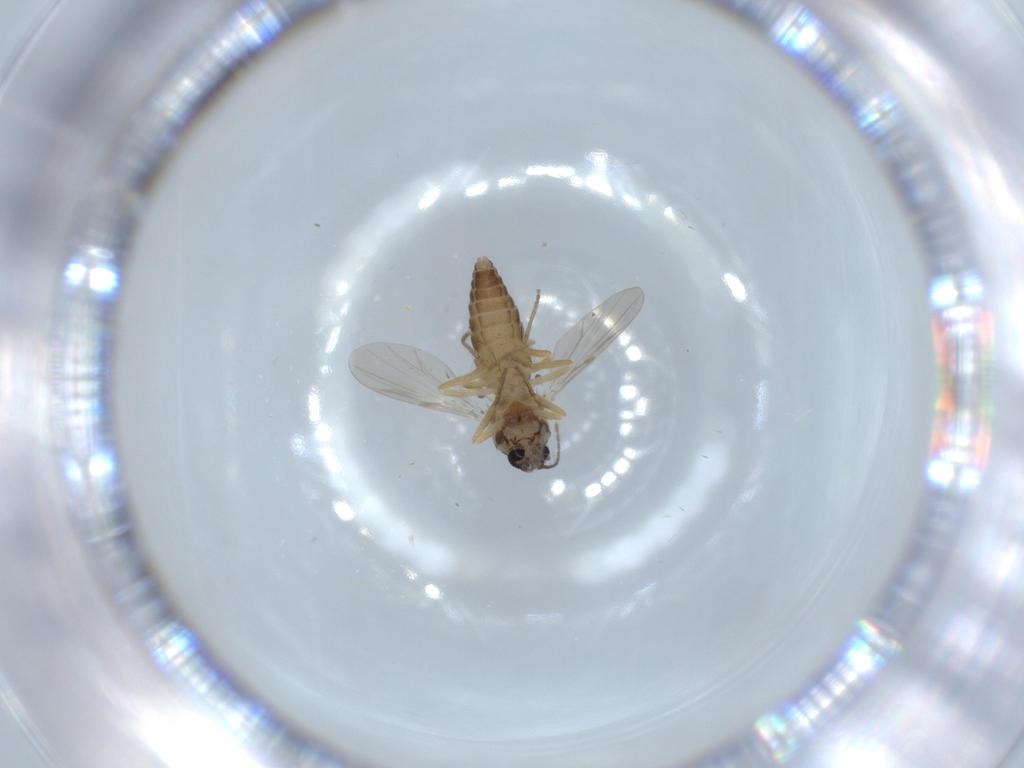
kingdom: Animalia
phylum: Arthropoda
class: Insecta
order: Diptera
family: Ceratopogonidae
